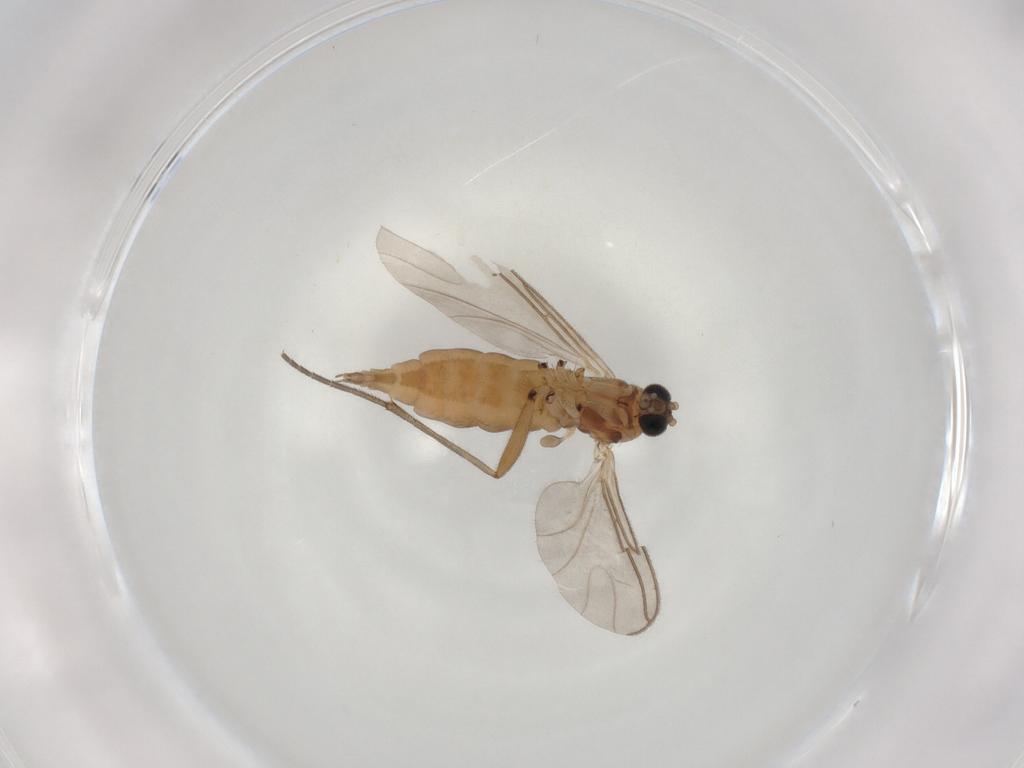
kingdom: Animalia
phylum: Arthropoda
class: Insecta
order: Diptera
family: Sciaridae
